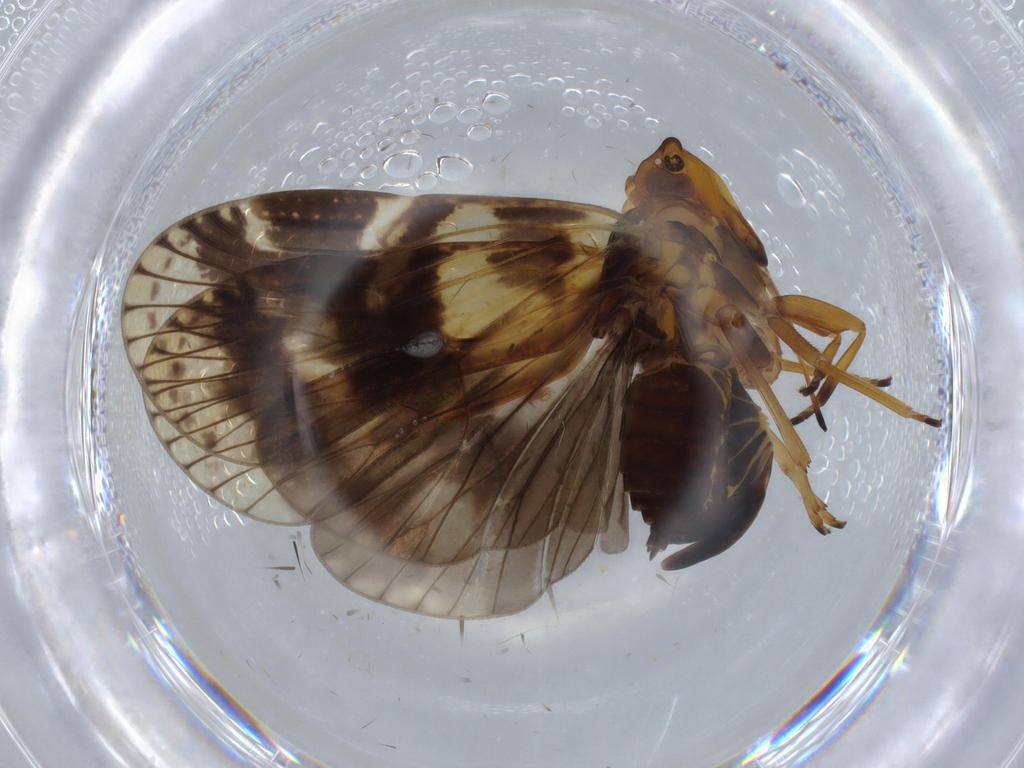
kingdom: Animalia
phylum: Arthropoda
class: Insecta
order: Hemiptera
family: Cixiidae
